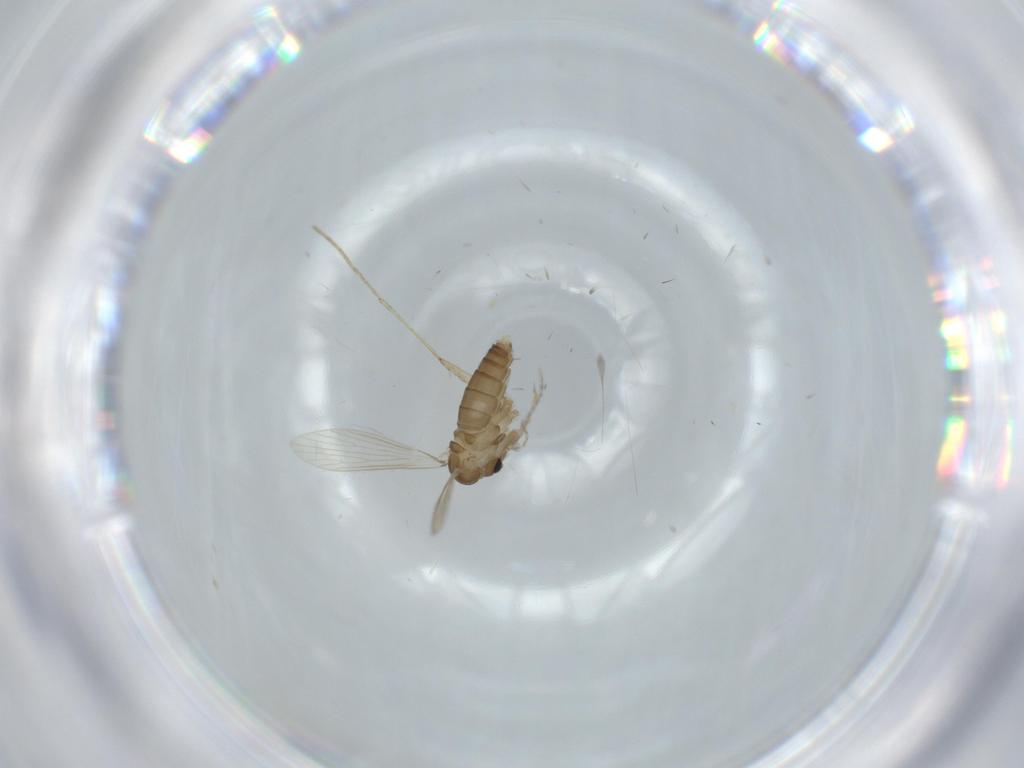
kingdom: Animalia
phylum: Arthropoda
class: Insecta
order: Diptera
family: Psychodidae
